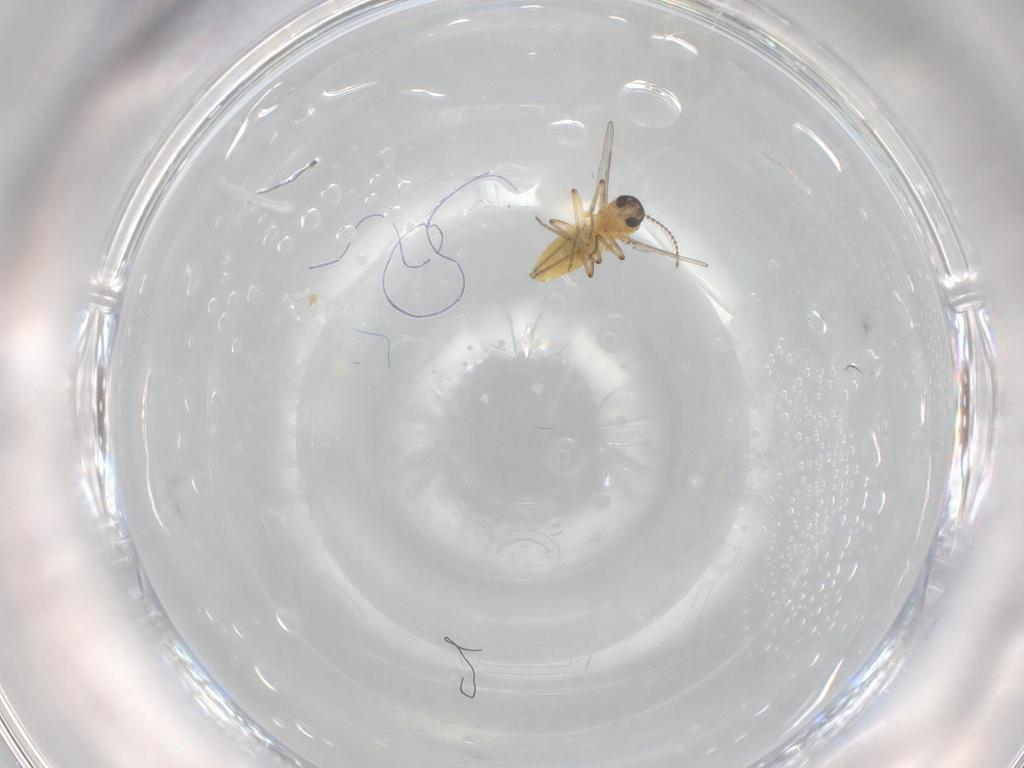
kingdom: Animalia
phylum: Arthropoda
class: Insecta
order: Diptera
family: Ceratopogonidae
